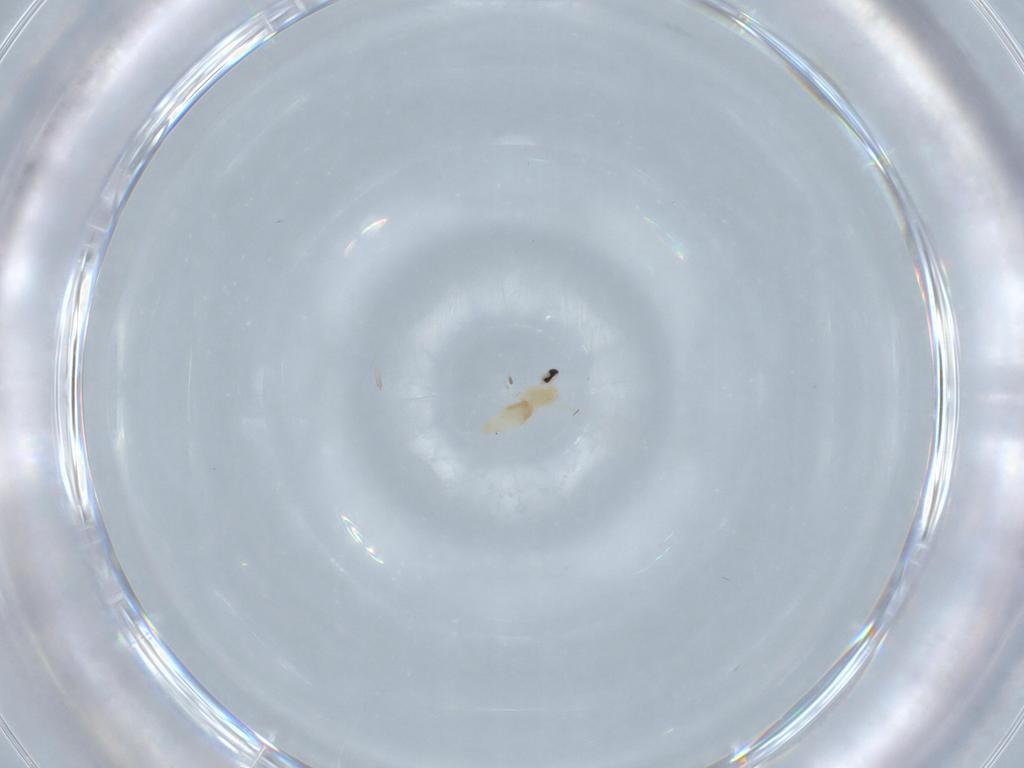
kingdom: Animalia
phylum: Arthropoda
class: Insecta
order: Diptera
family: Cecidomyiidae
